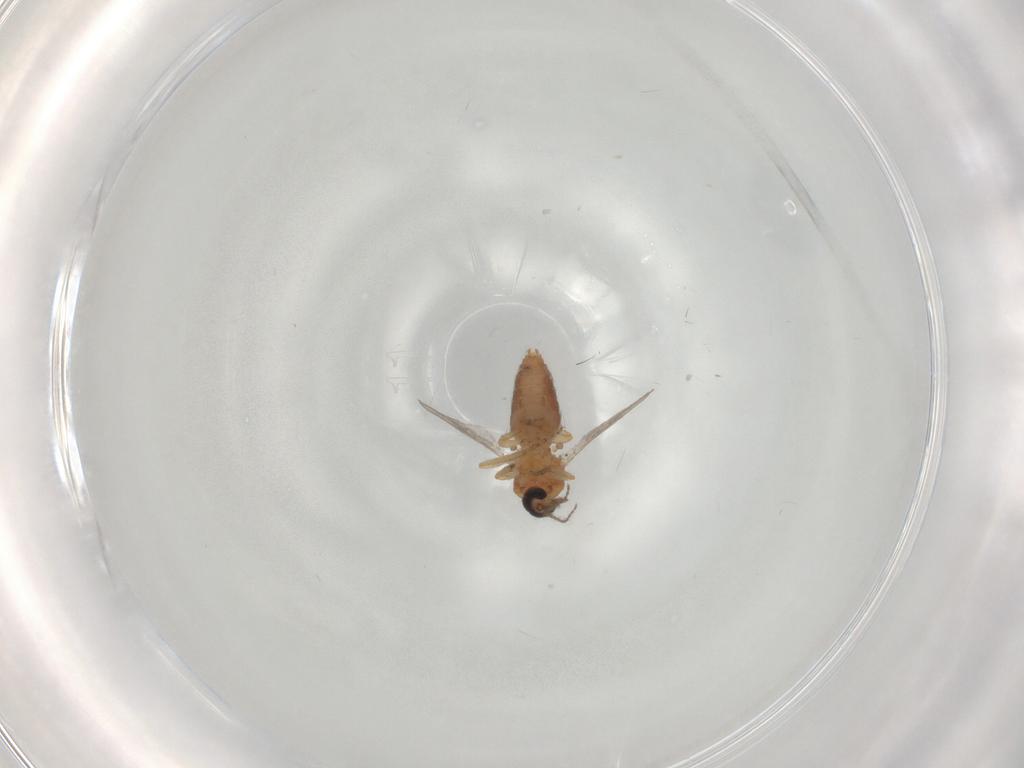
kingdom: Animalia
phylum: Arthropoda
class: Insecta
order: Diptera
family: Ceratopogonidae
